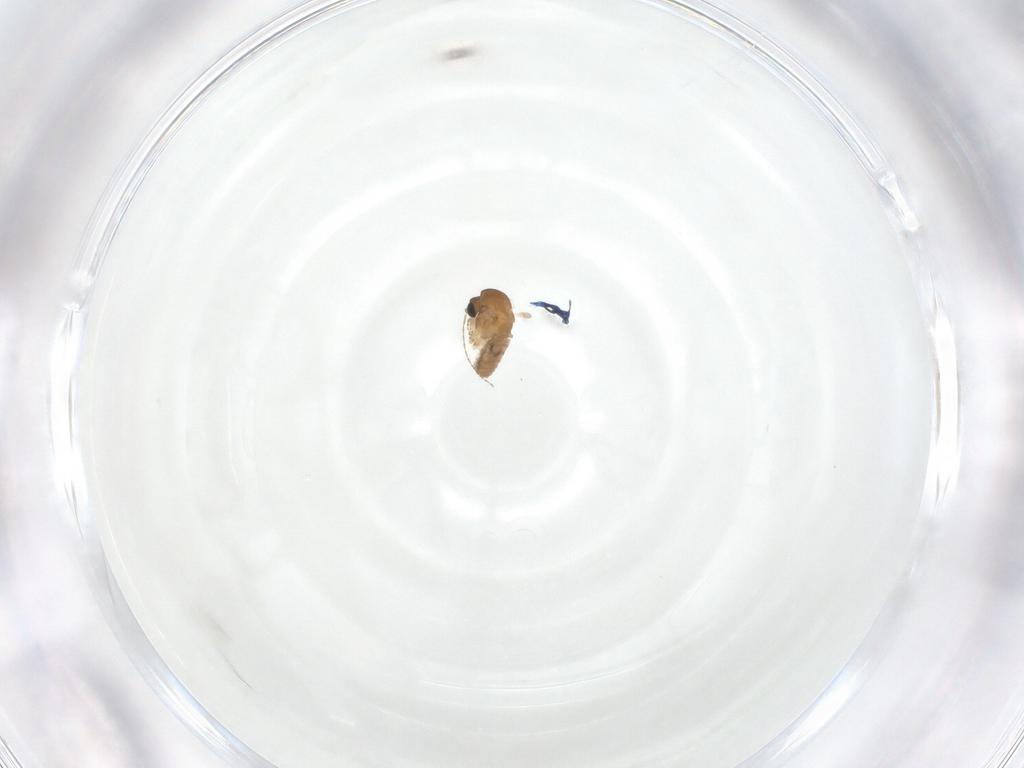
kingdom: Animalia
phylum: Arthropoda
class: Insecta
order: Diptera
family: Psychodidae
